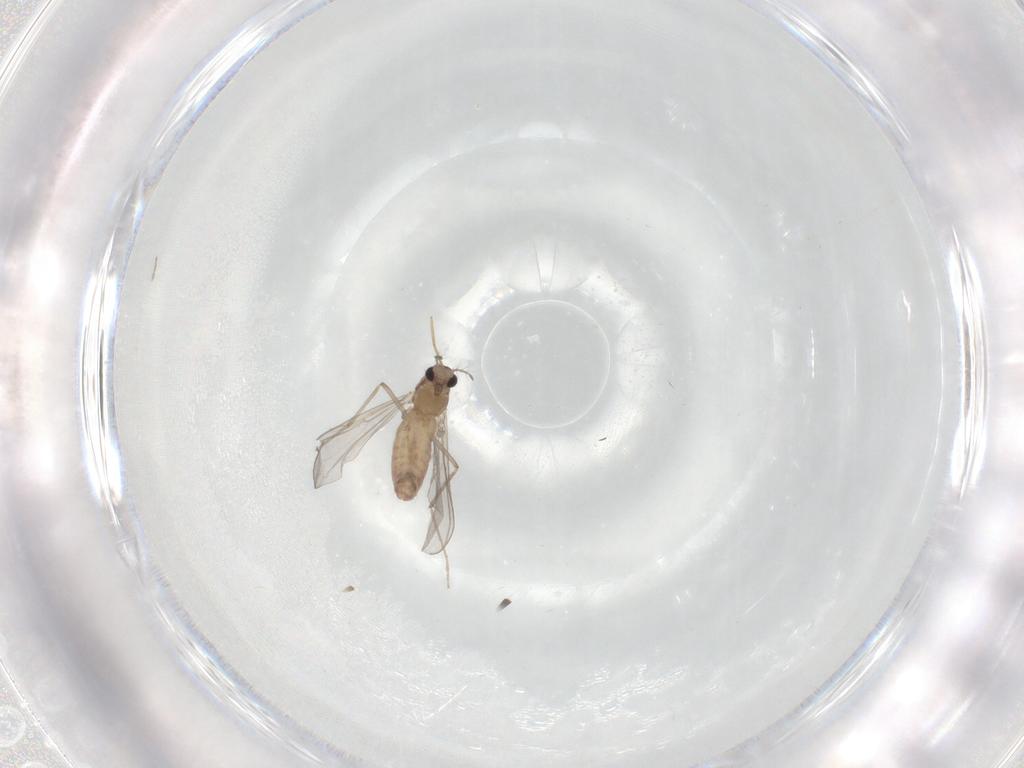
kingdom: Animalia
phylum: Arthropoda
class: Insecta
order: Diptera
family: Chironomidae
